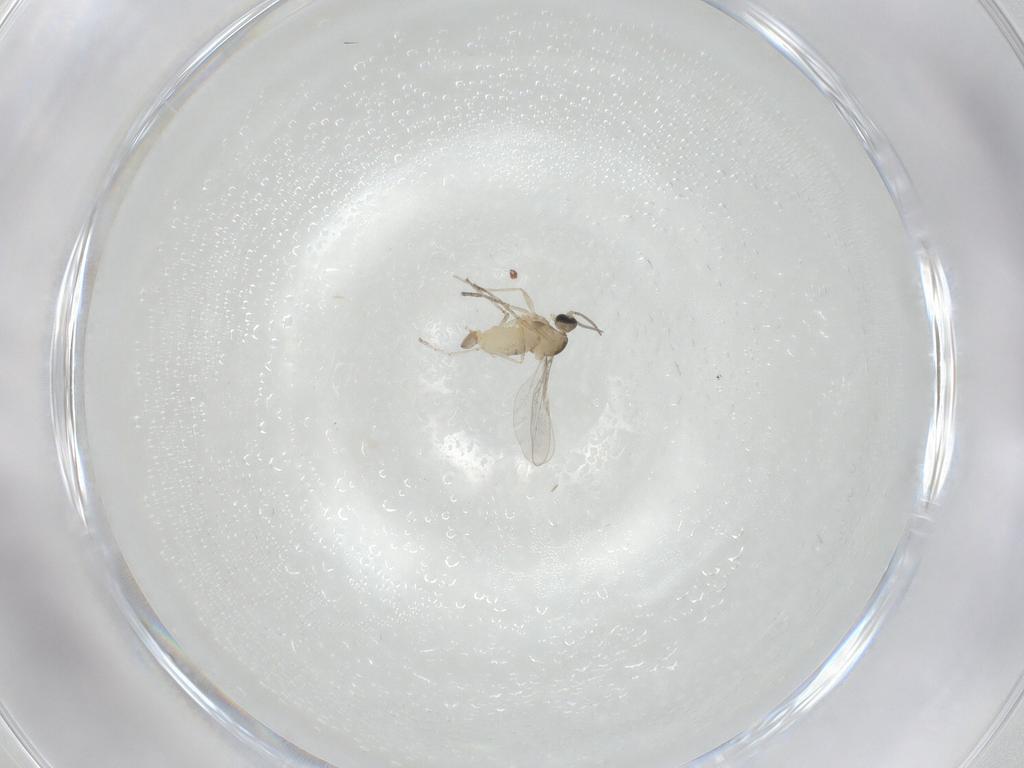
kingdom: Animalia
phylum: Arthropoda
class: Insecta
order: Diptera
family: Cecidomyiidae
